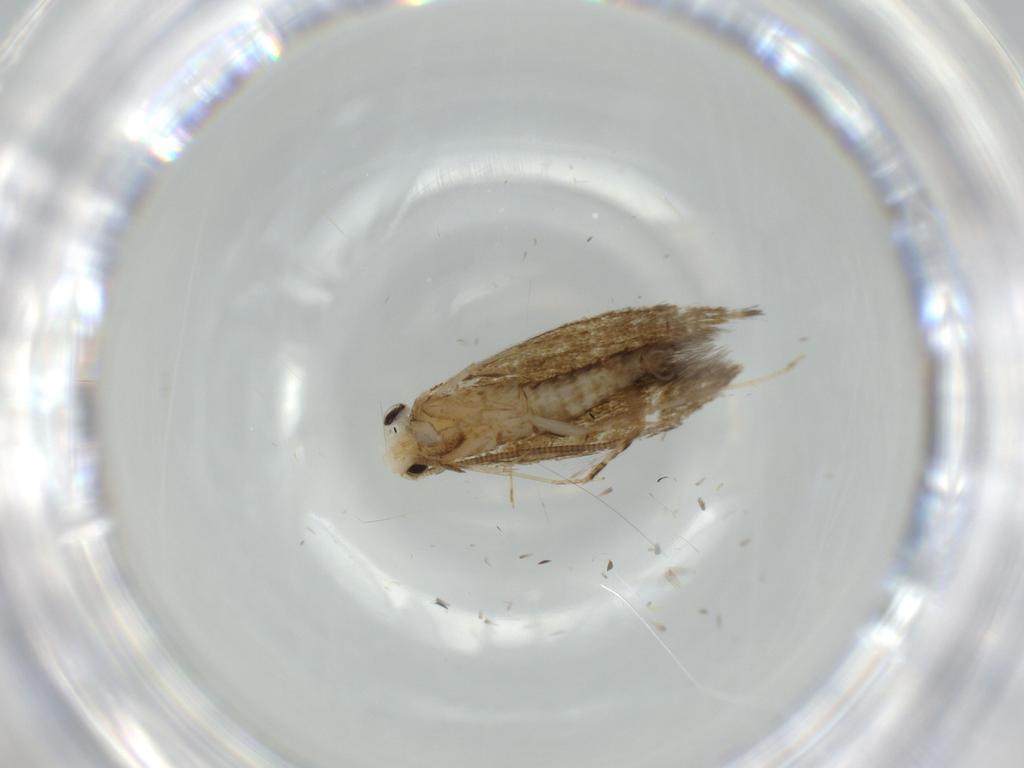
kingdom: Animalia
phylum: Arthropoda
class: Insecta
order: Lepidoptera
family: Tineidae
